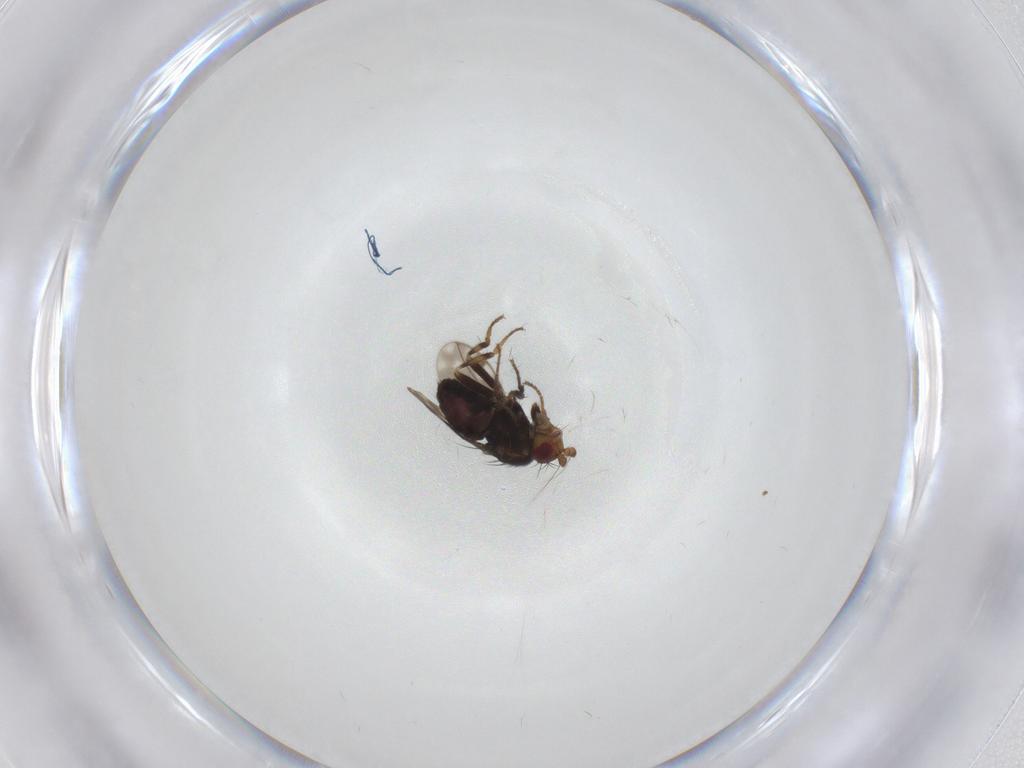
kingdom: Animalia
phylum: Arthropoda
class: Insecta
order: Diptera
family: Sphaeroceridae
